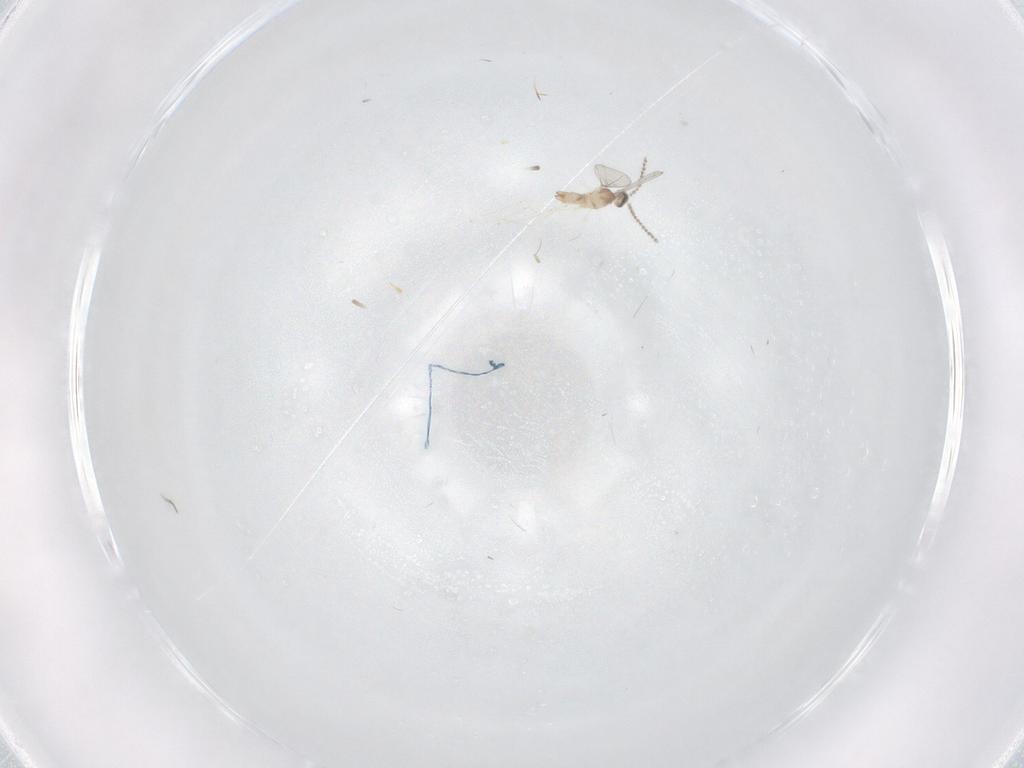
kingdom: Animalia
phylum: Arthropoda
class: Insecta
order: Diptera
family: Cecidomyiidae
